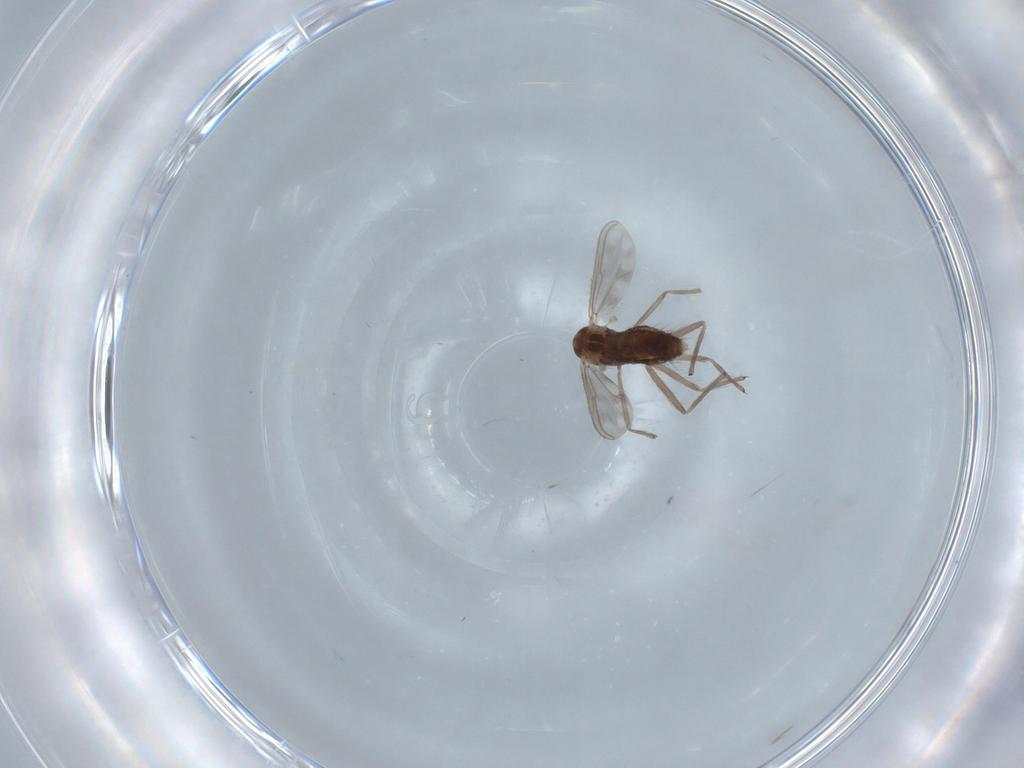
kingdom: Animalia
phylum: Arthropoda
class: Insecta
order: Diptera
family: Cecidomyiidae
